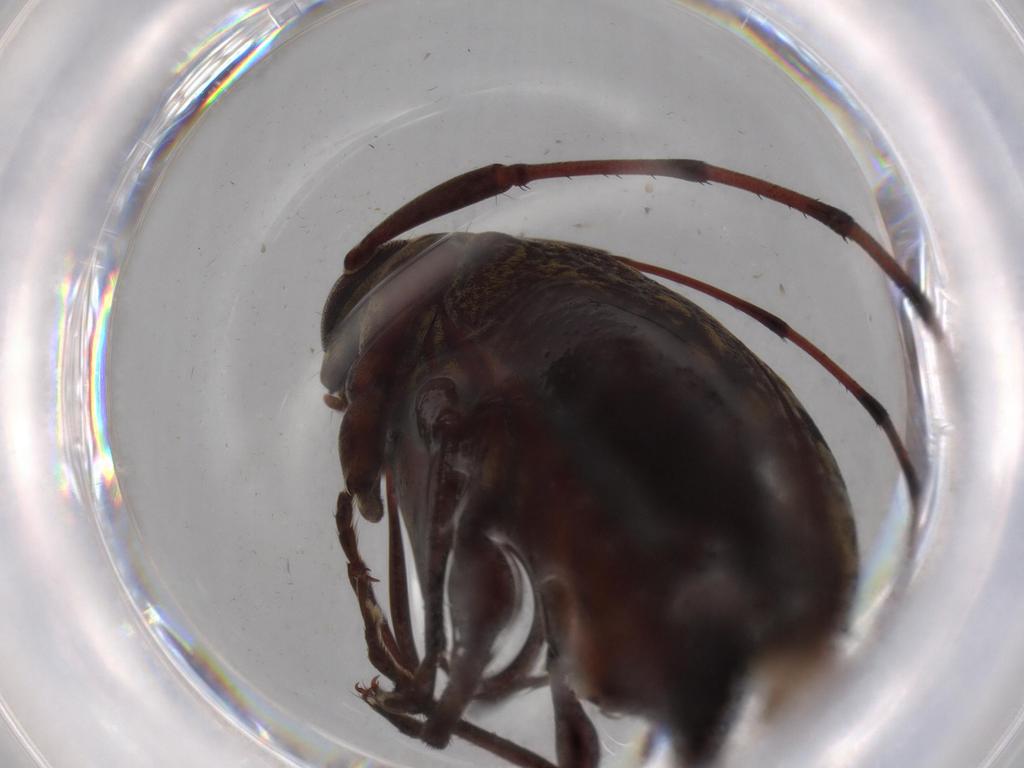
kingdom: Animalia
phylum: Arthropoda
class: Insecta
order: Coleoptera
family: Cerambycidae
